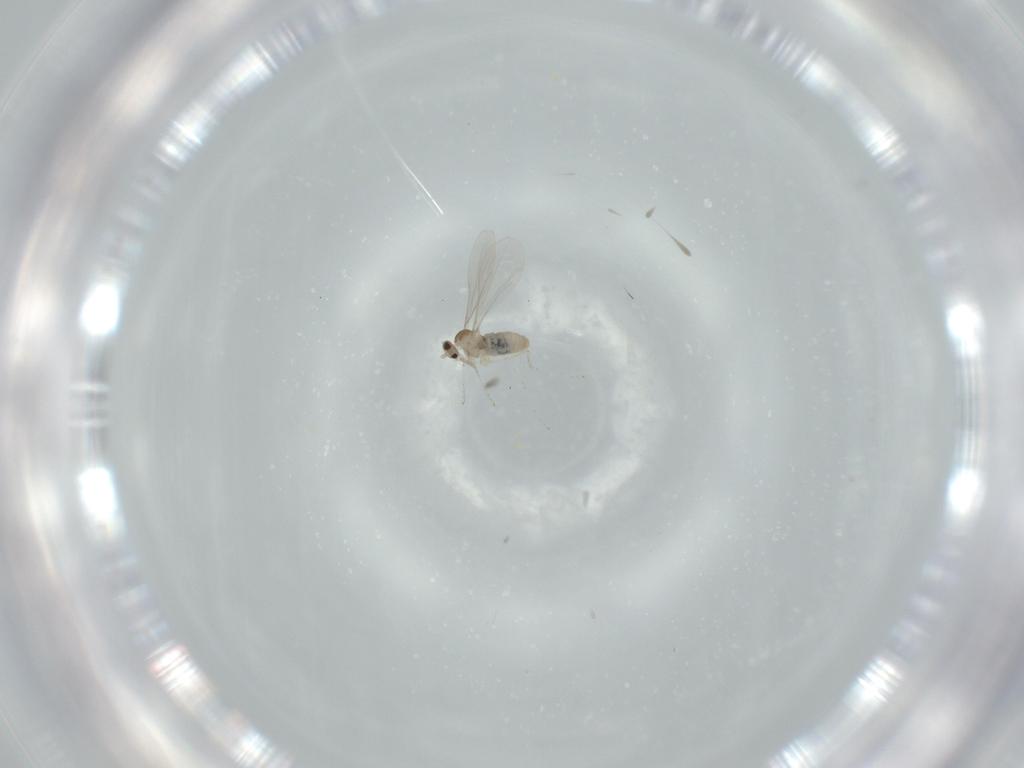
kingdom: Animalia
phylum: Arthropoda
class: Insecta
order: Diptera
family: Cecidomyiidae
